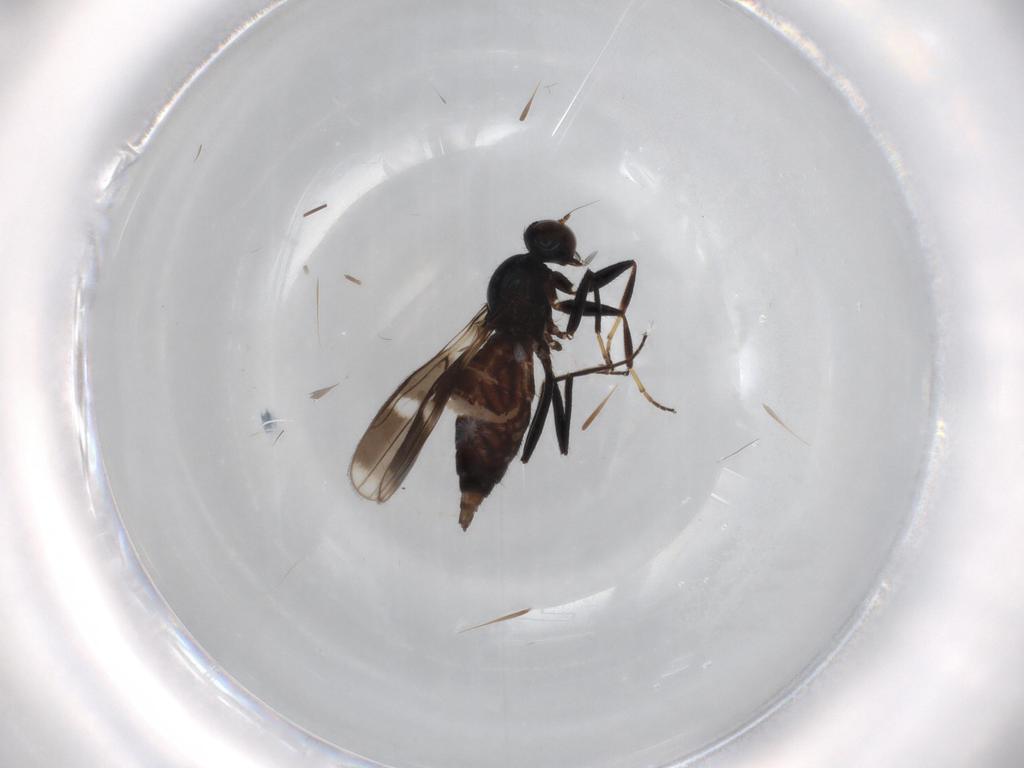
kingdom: Animalia
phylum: Arthropoda
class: Insecta
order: Diptera
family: Hybotidae
